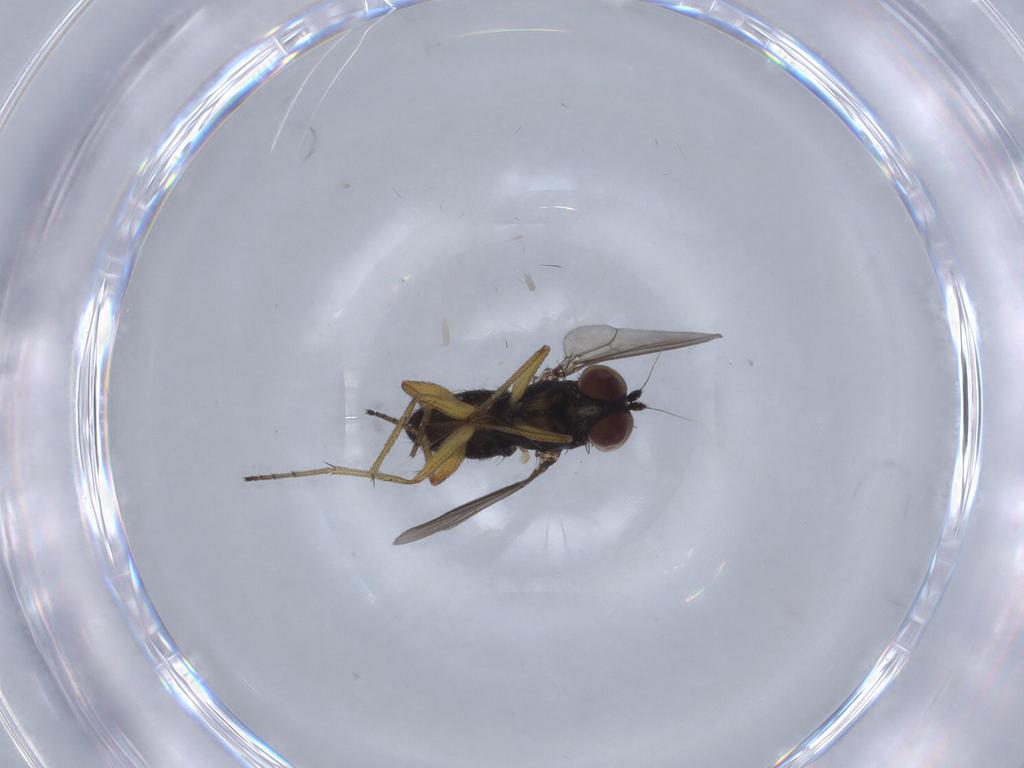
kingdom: Animalia
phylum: Arthropoda
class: Insecta
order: Diptera
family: Dolichopodidae
